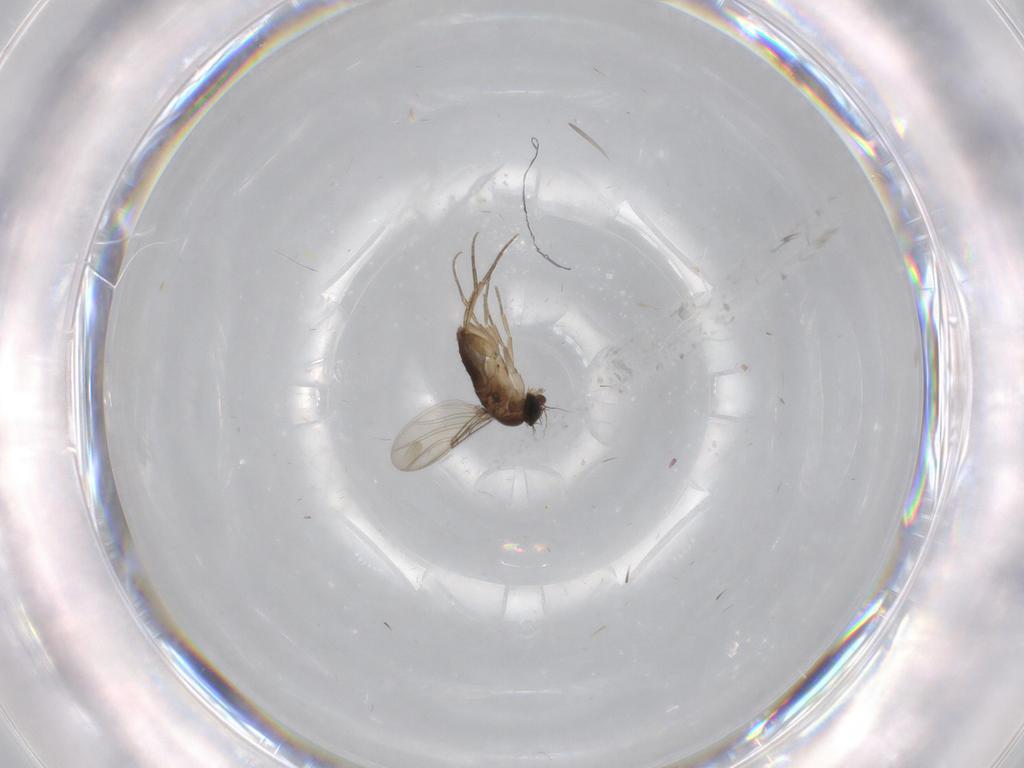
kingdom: Animalia
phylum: Arthropoda
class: Insecta
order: Diptera
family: Phoridae
